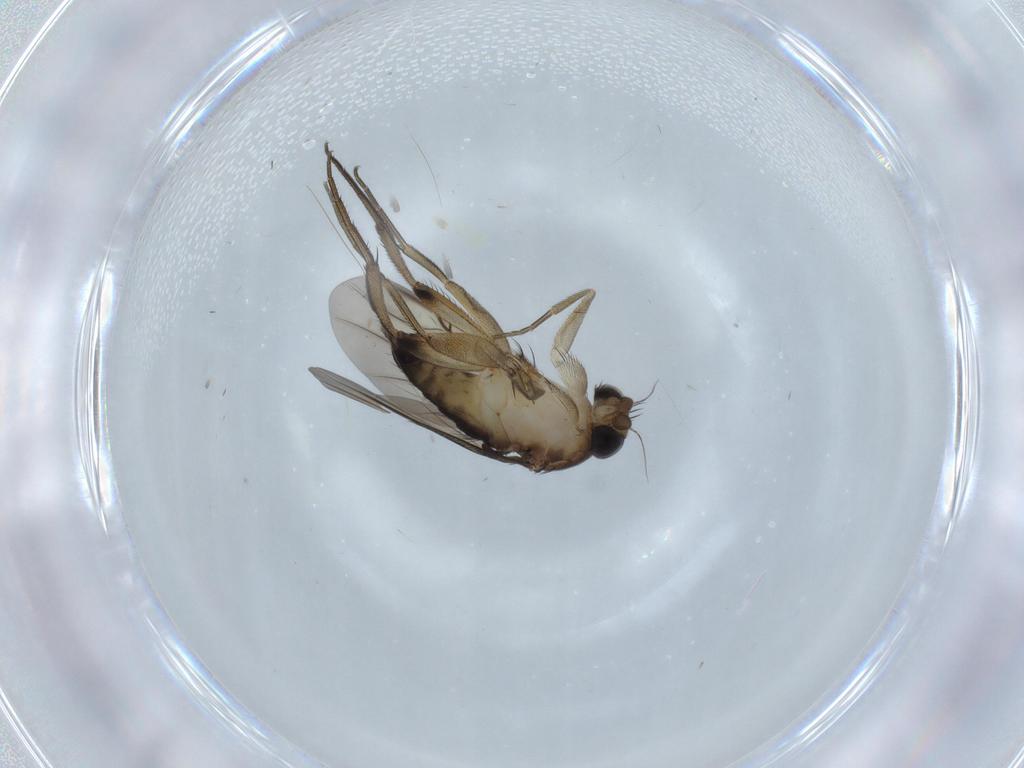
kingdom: Animalia
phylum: Arthropoda
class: Insecta
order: Diptera
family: Phoridae
